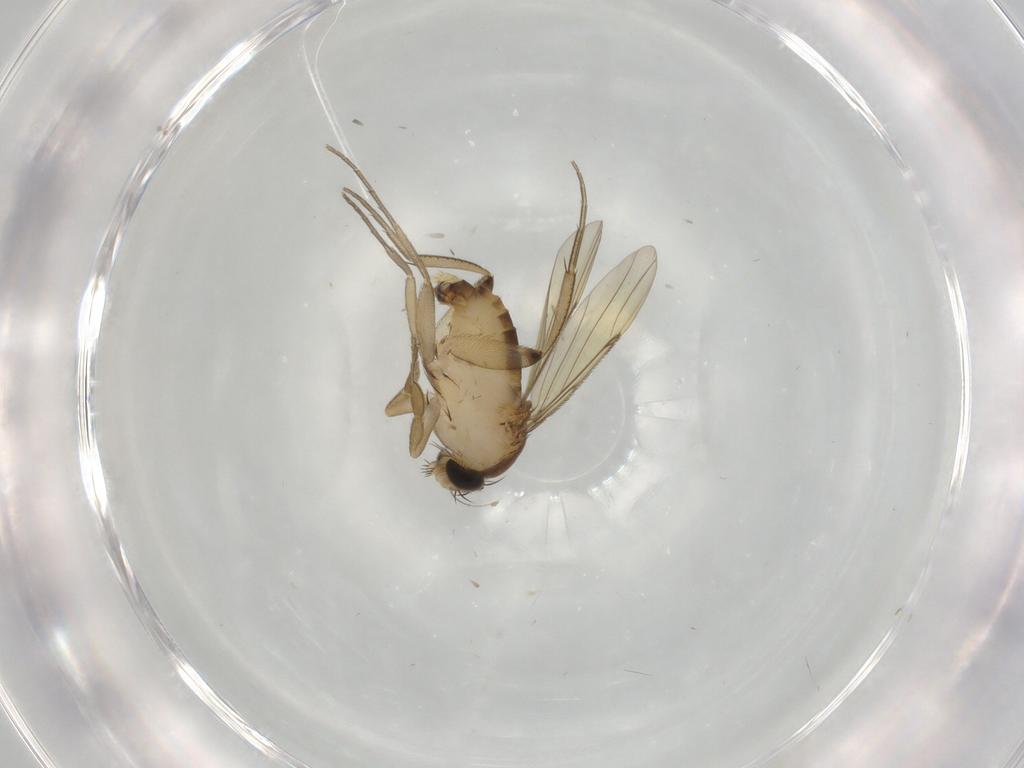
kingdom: Animalia
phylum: Arthropoda
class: Insecta
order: Diptera
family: Phoridae
